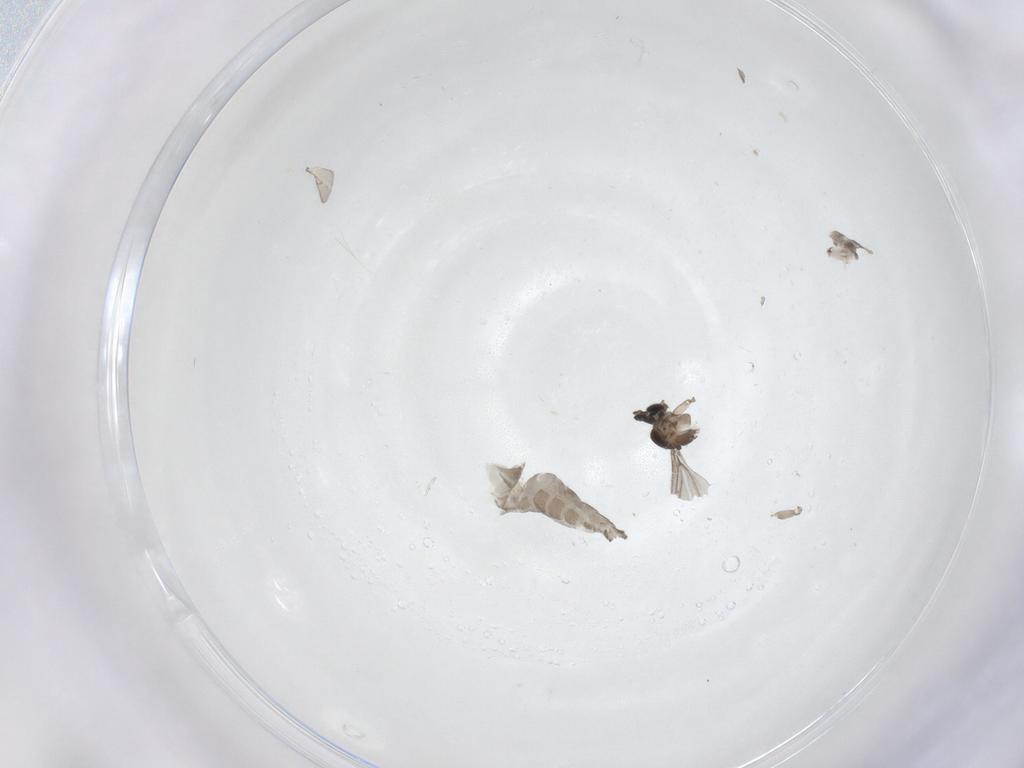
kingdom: Animalia
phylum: Arthropoda
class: Insecta
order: Diptera
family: Sciaridae
